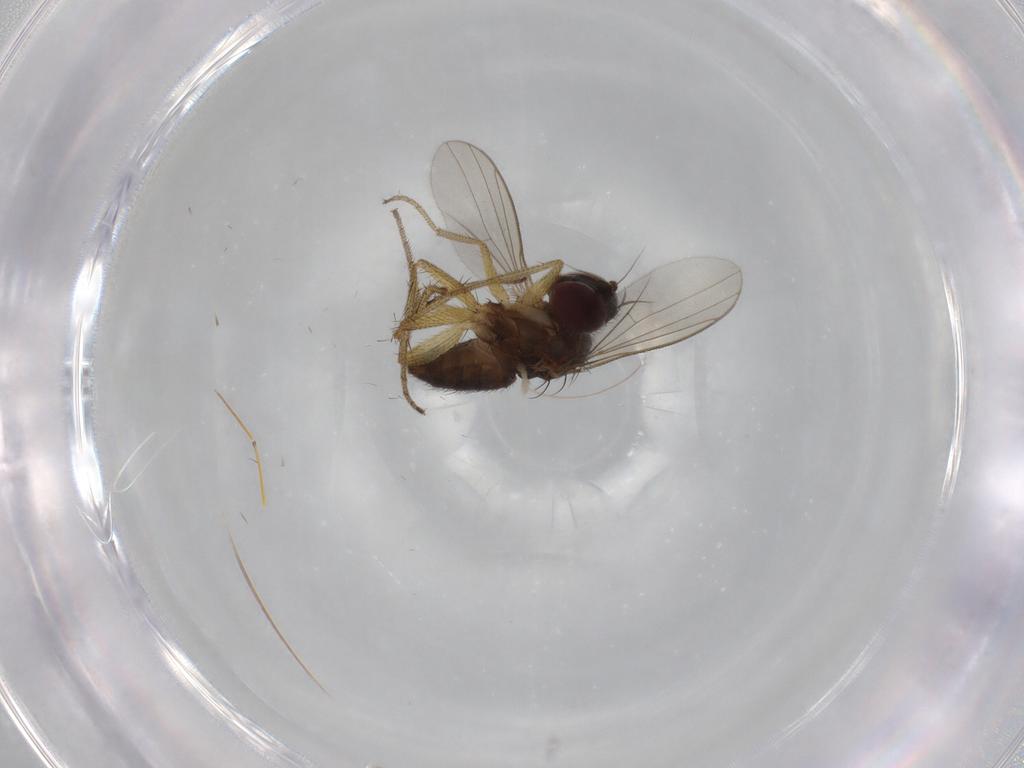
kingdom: Animalia
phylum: Arthropoda
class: Insecta
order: Diptera
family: Dolichopodidae
